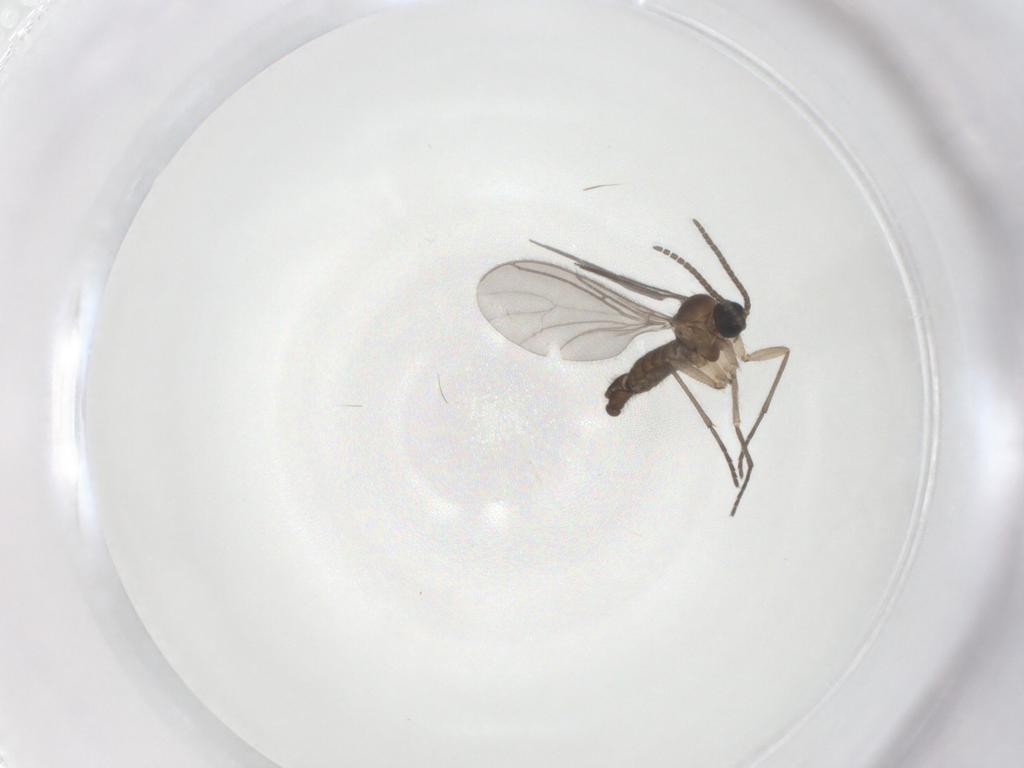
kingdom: Animalia
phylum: Arthropoda
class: Insecta
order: Diptera
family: Sciaridae
